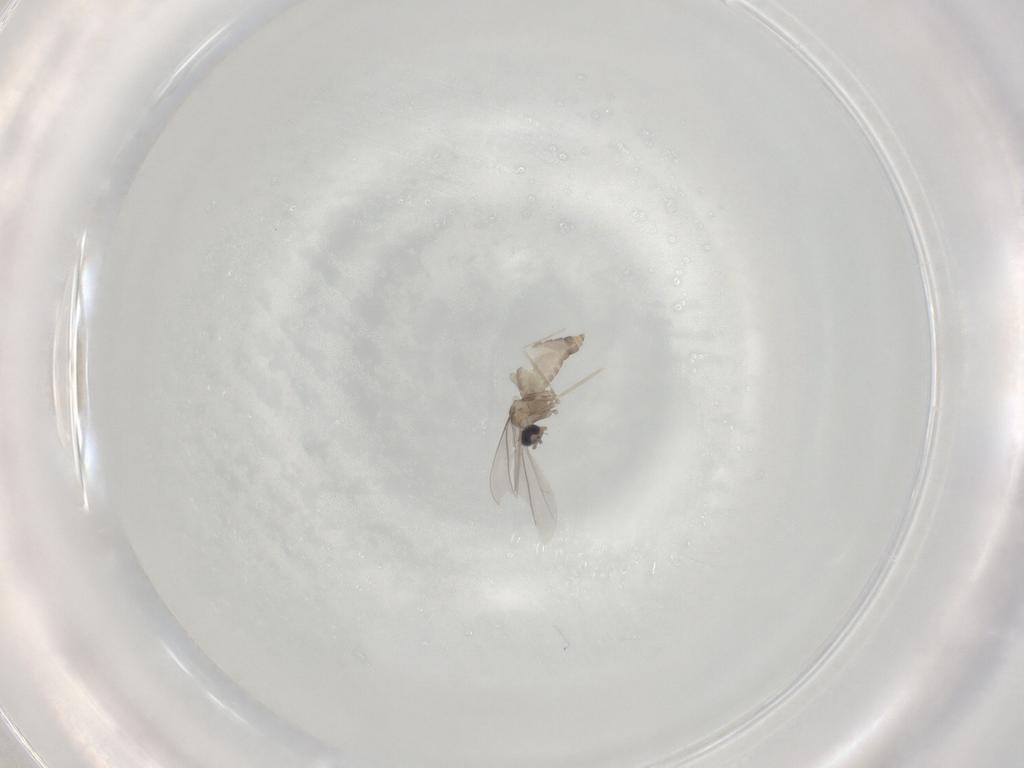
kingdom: Animalia
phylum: Arthropoda
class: Insecta
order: Diptera
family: Cecidomyiidae
